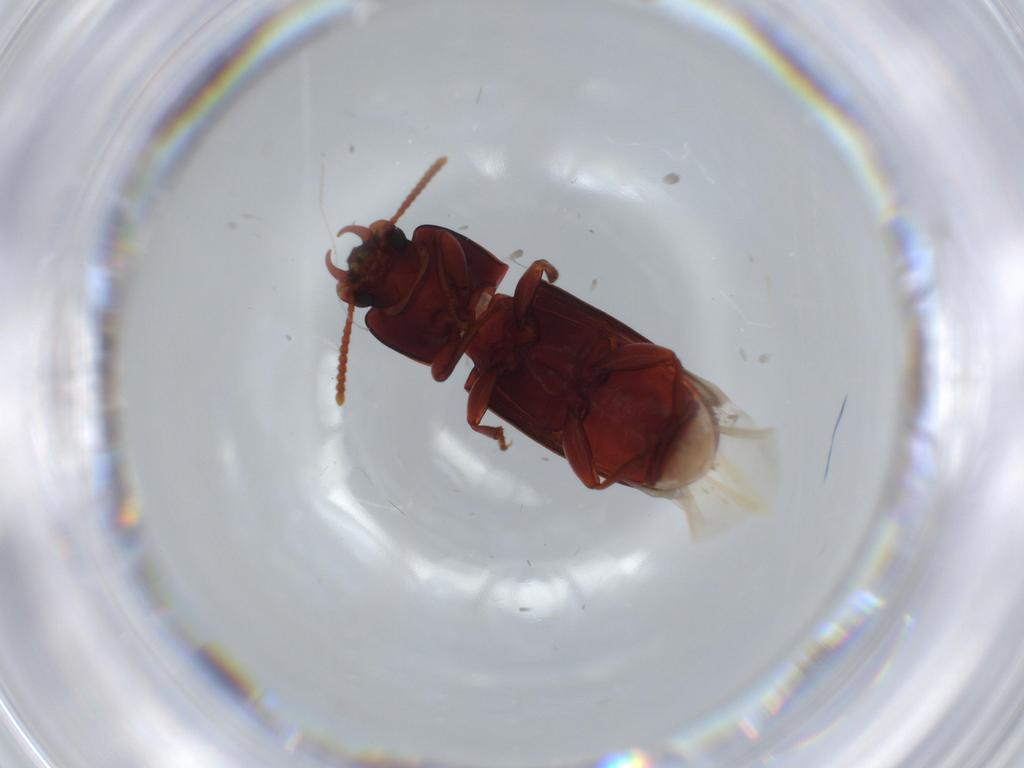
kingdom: Animalia
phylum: Arthropoda
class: Insecta
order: Coleoptera
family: Chrysomelidae
